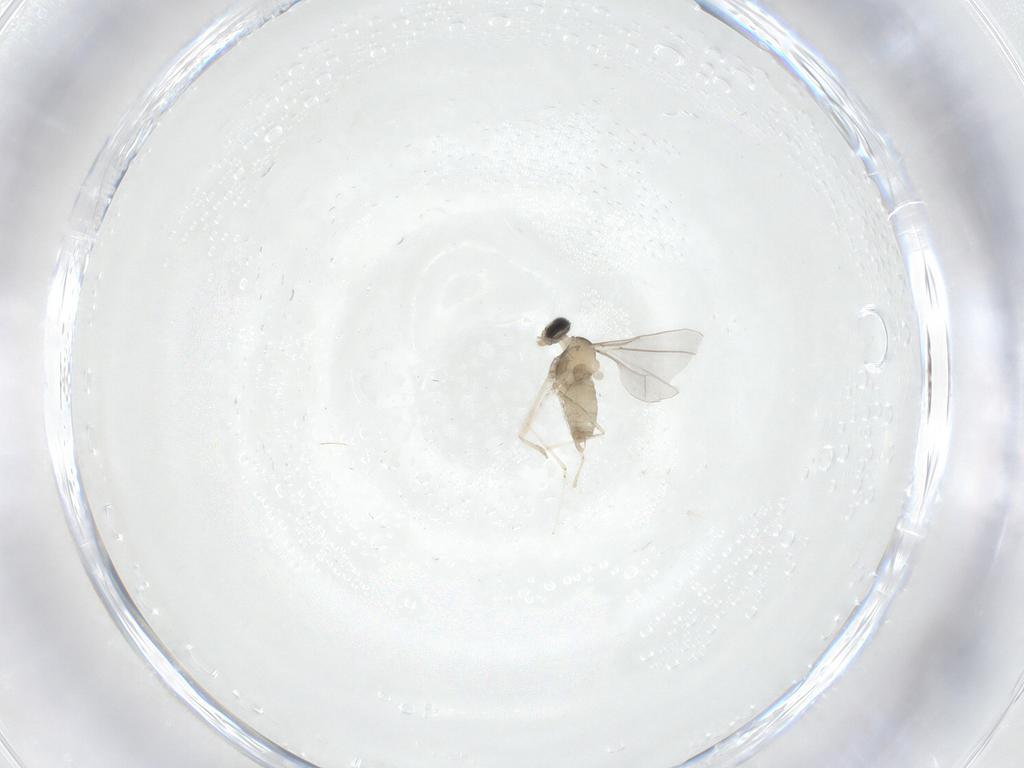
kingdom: Animalia
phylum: Arthropoda
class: Insecta
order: Diptera
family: Cecidomyiidae
